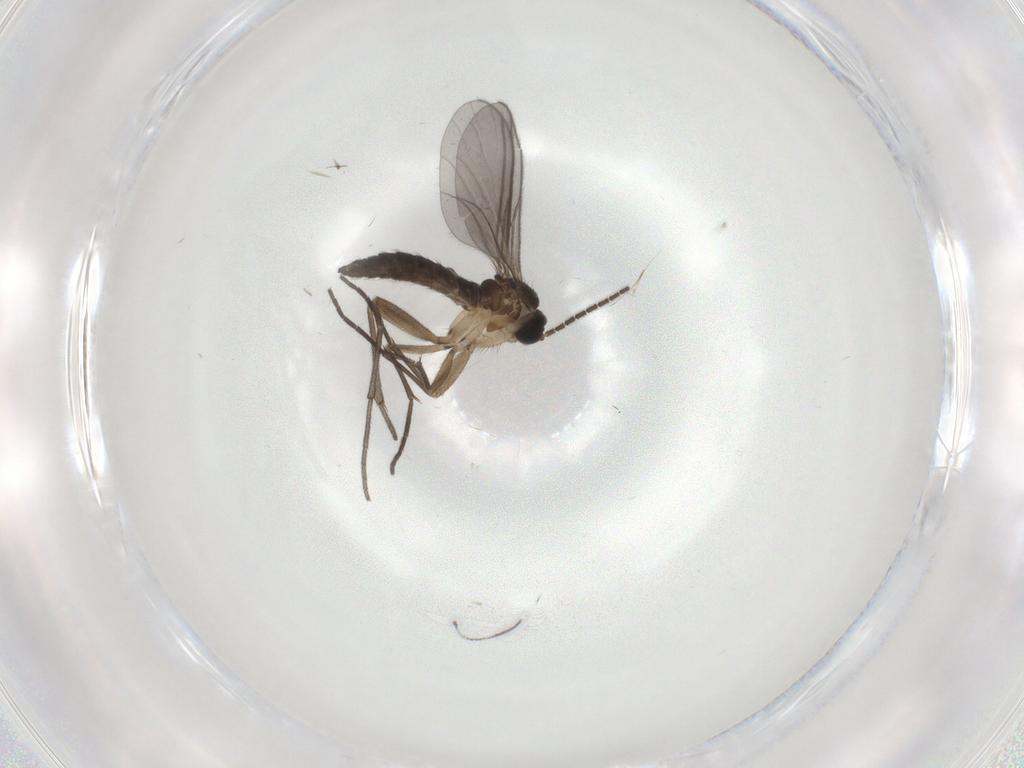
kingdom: Animalia
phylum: Arthropoda
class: Insecta
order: Diptera
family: Sciaridae
